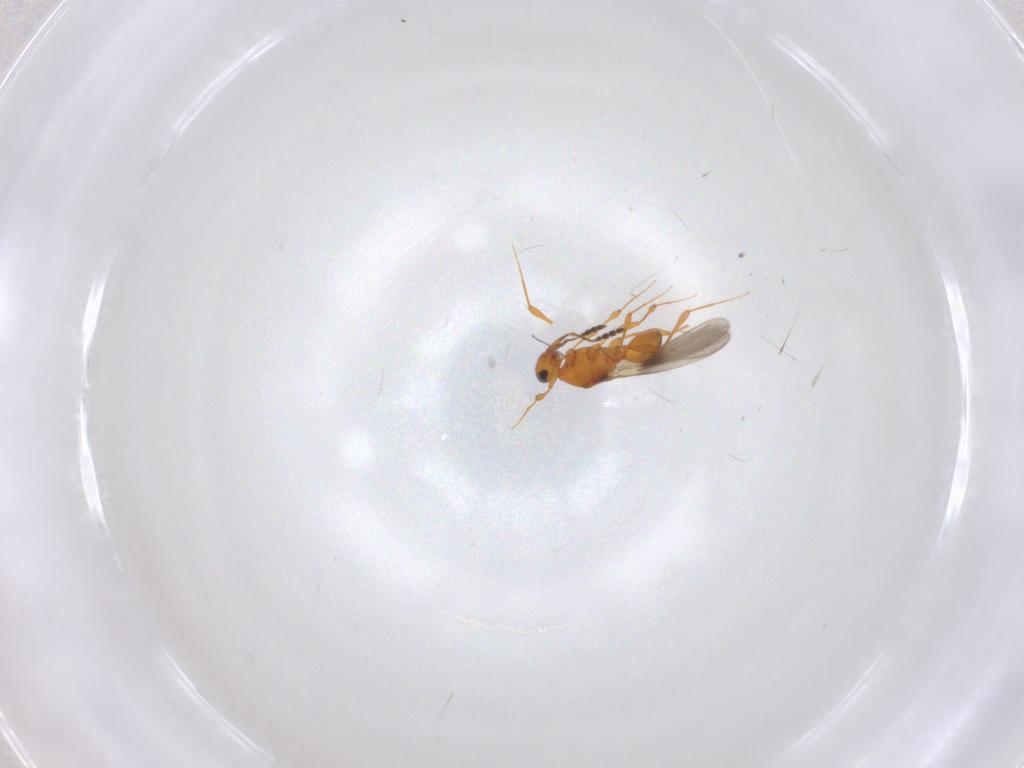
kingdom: Animalia
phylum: Arthropoda
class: Insecta
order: Hymenoptera
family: Platygastridae
